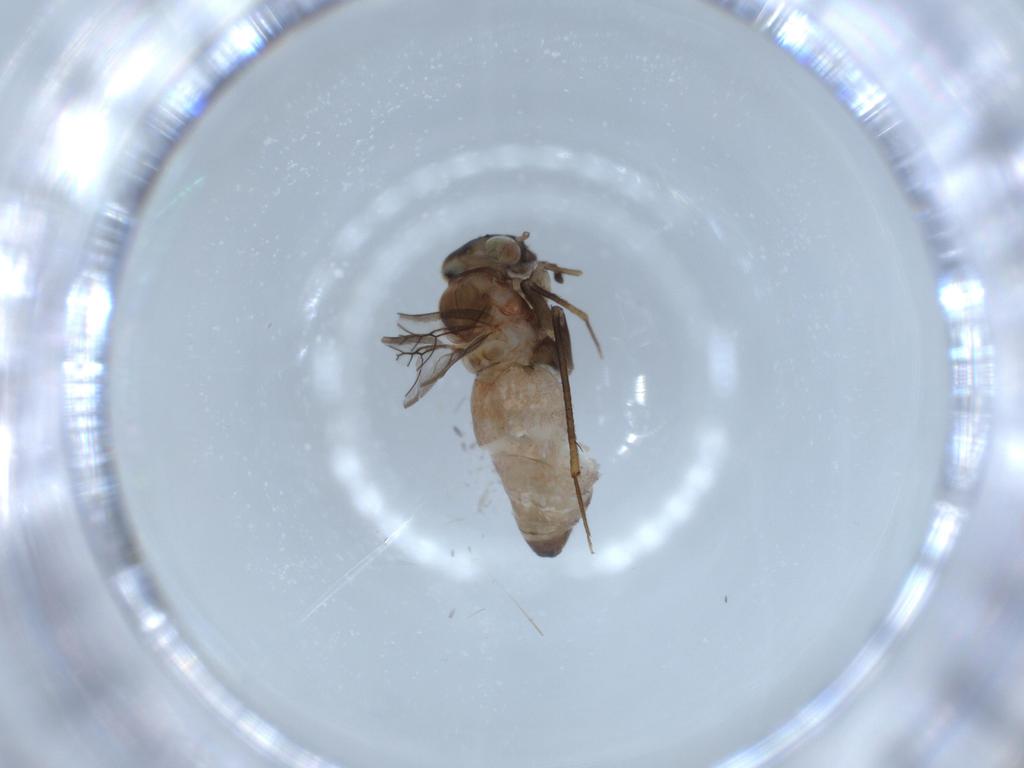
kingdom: Animalia
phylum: Arthropoda
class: Insecta
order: Psocodea
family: Lepidopsocidae
